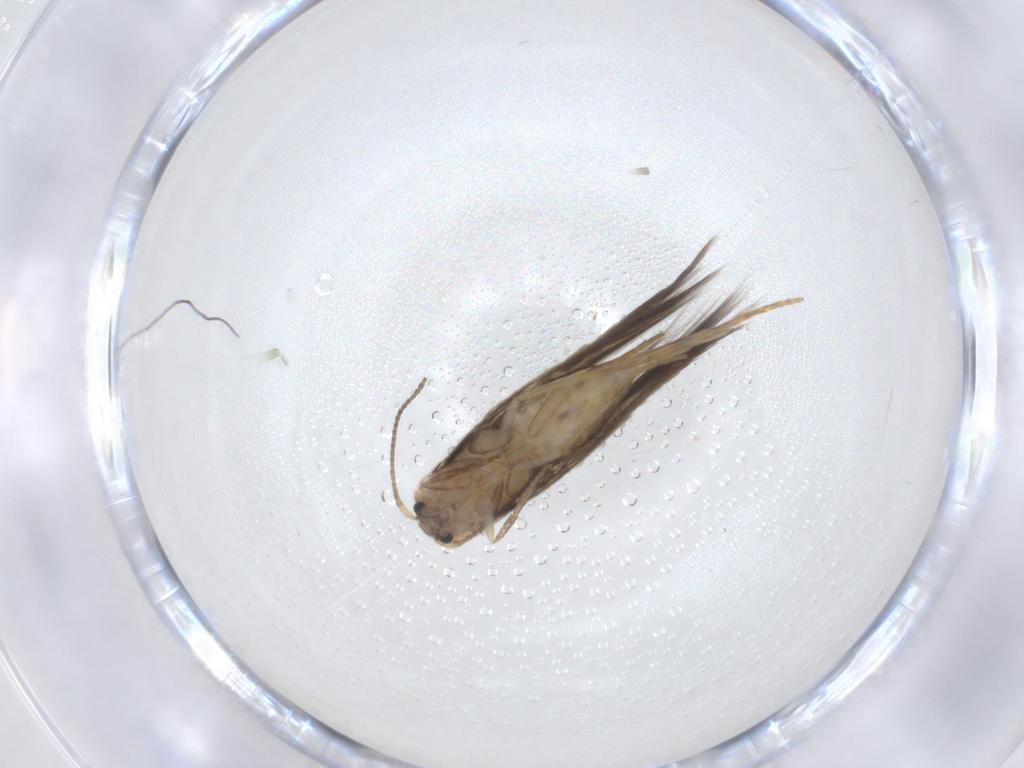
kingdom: Animalia
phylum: Arthropoda
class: Insecta
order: Lepidoptera
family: Nepticulidae
